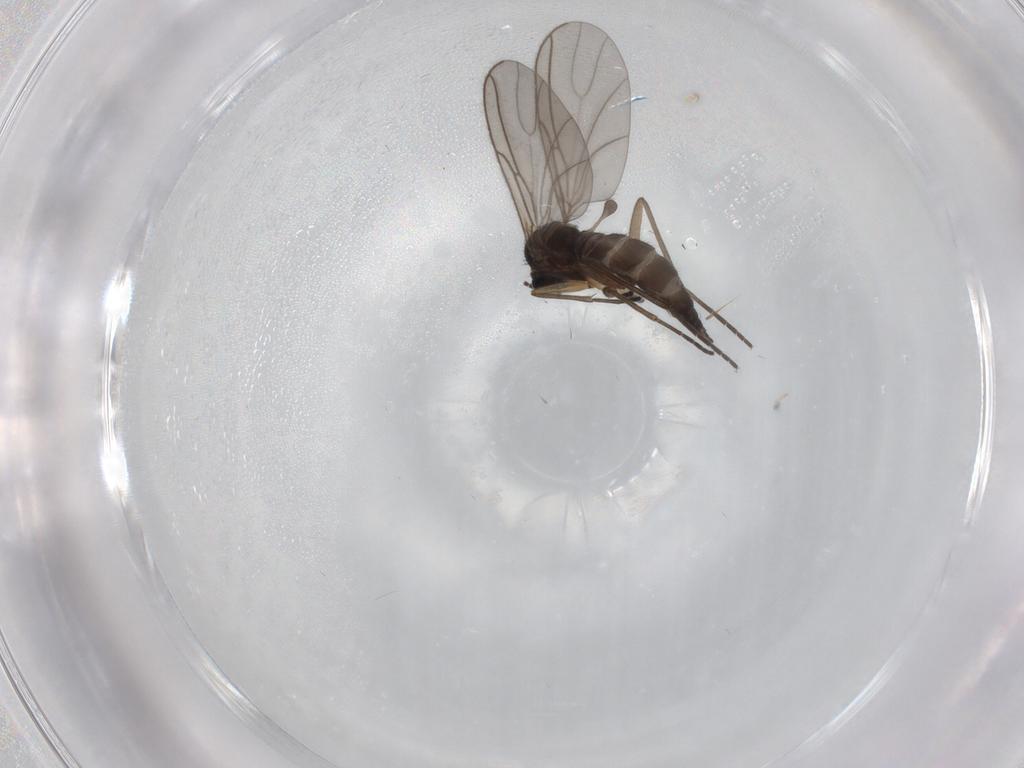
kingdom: Animalia
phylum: Arthropoda
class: Insecta
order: Diptera
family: Sciaridae
